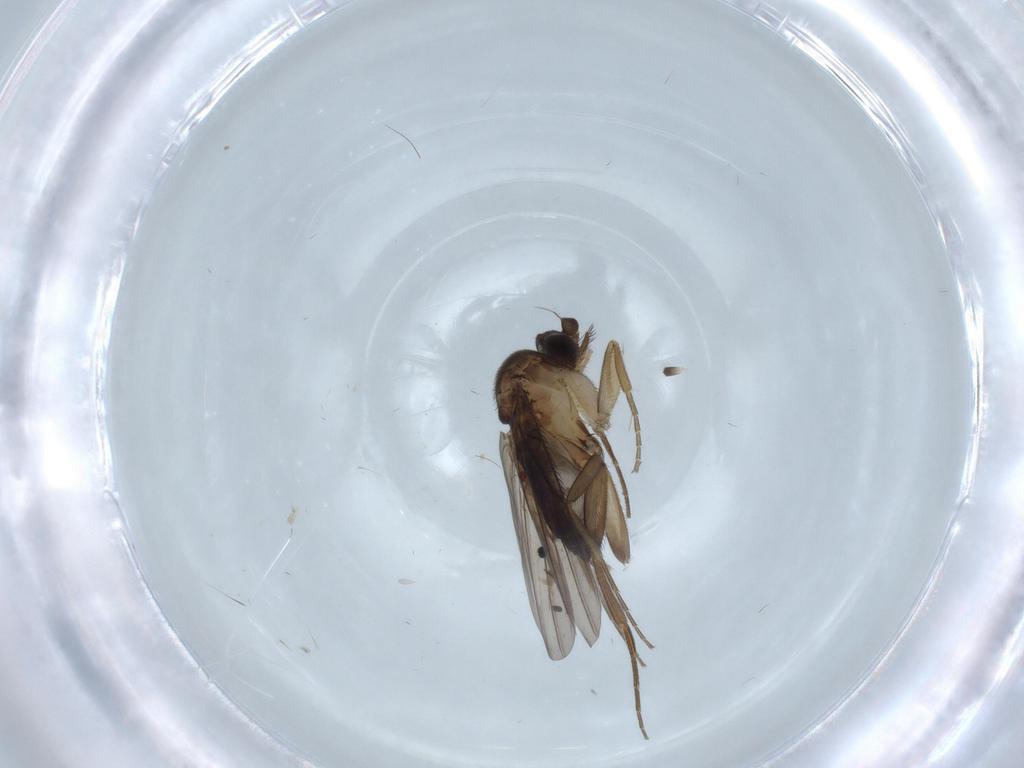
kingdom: Animalia
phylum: Arthropoda
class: Insecta
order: Diptera
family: Phoridae
